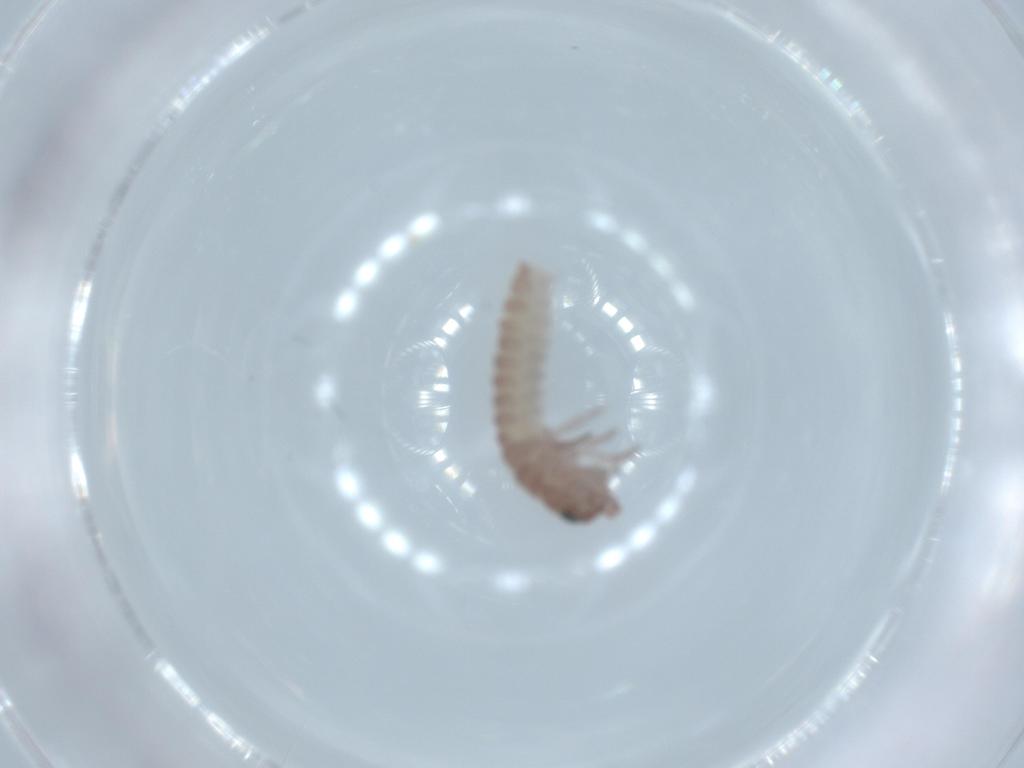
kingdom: Animalia
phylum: Arthropoda
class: Insecta
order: Archaeognatha
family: Machilidae
